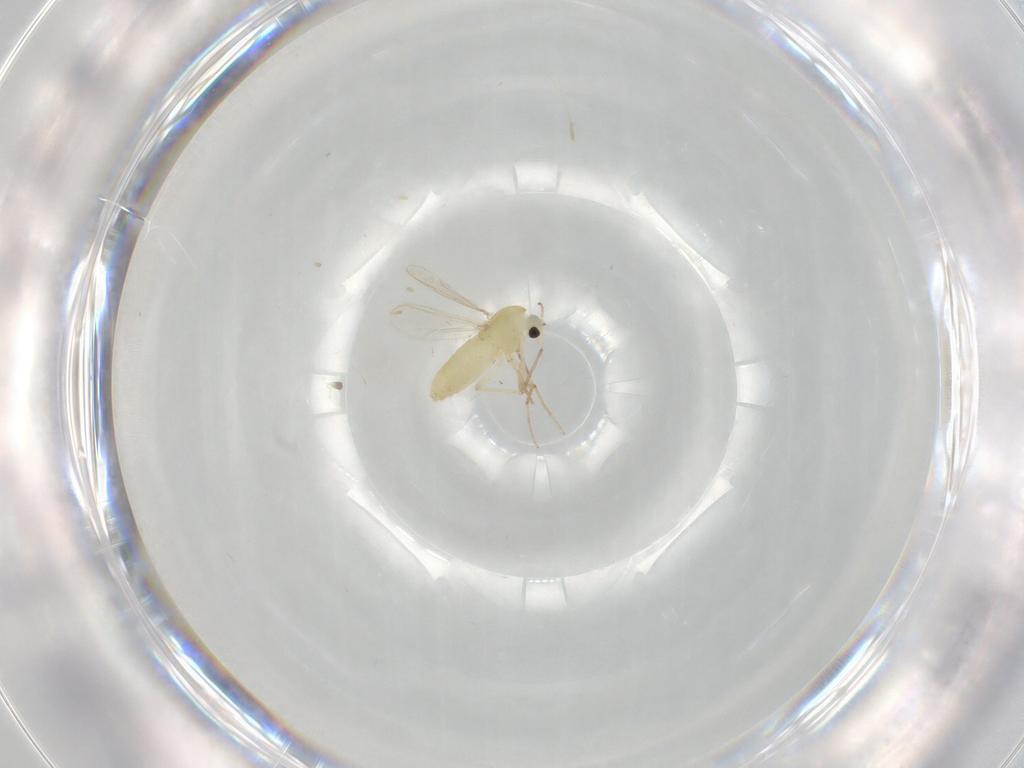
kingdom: Animalia
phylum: Arthropoda
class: Insecta
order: Diptera
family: Chironomidae
